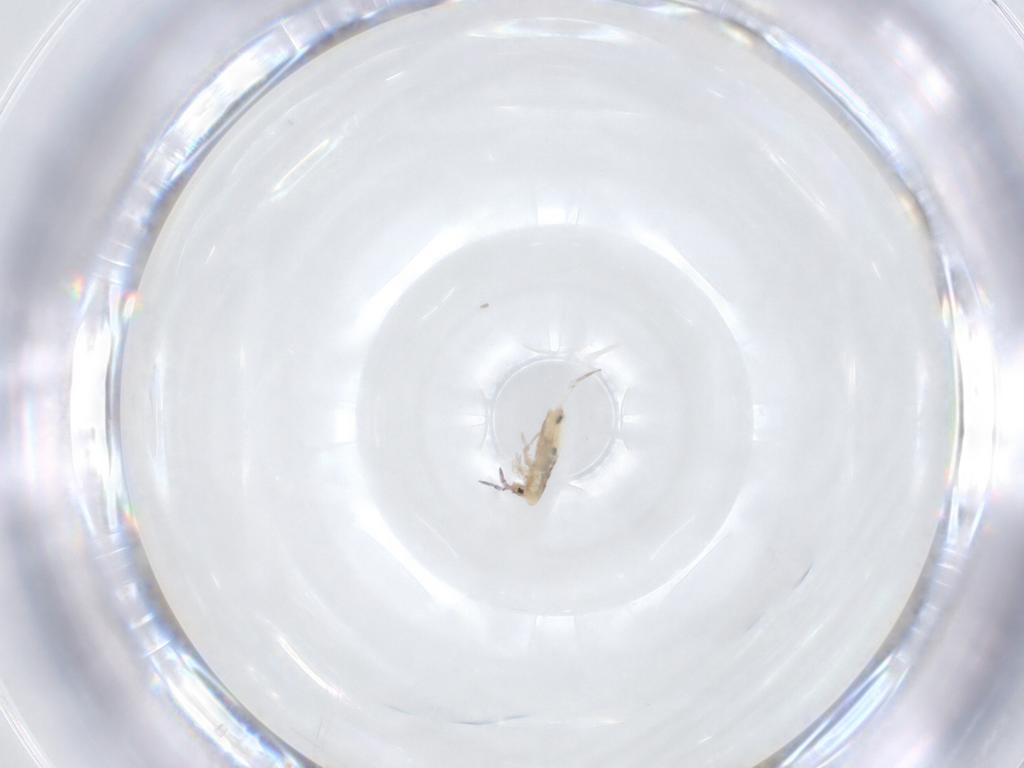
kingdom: Animalia
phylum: Arthropoda
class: Collembola
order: Entomobryomorpha
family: Entomobryidae
